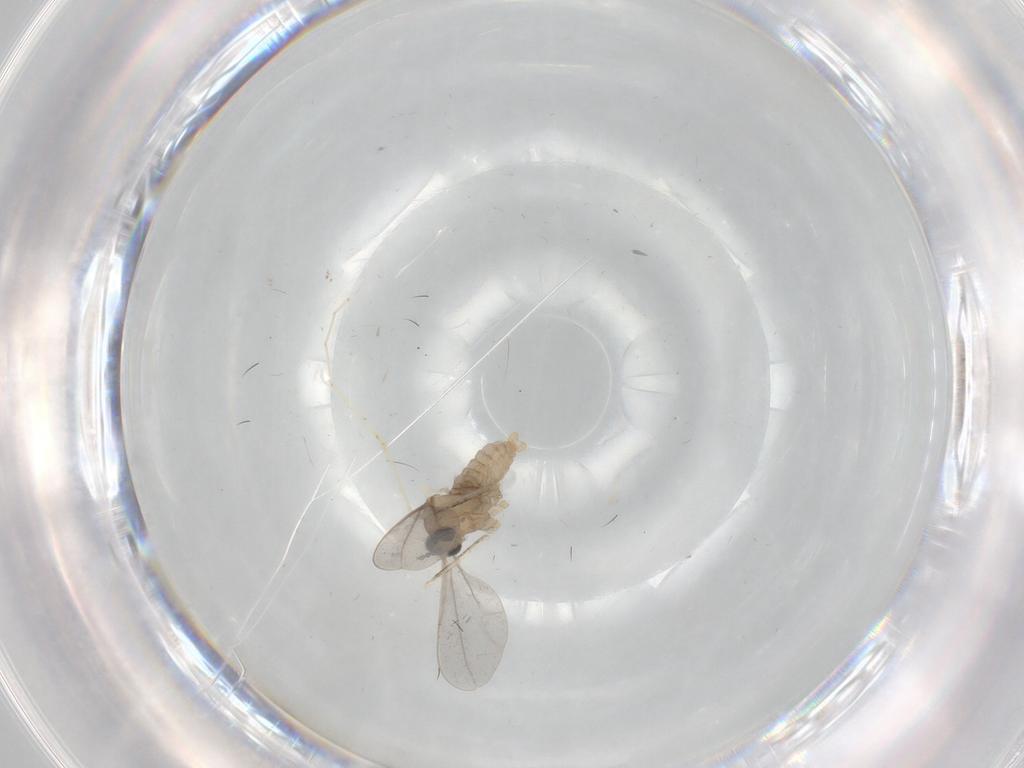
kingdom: Animalia
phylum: Arthropoda
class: Insecta
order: Diptera
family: Cecidomyiidae
